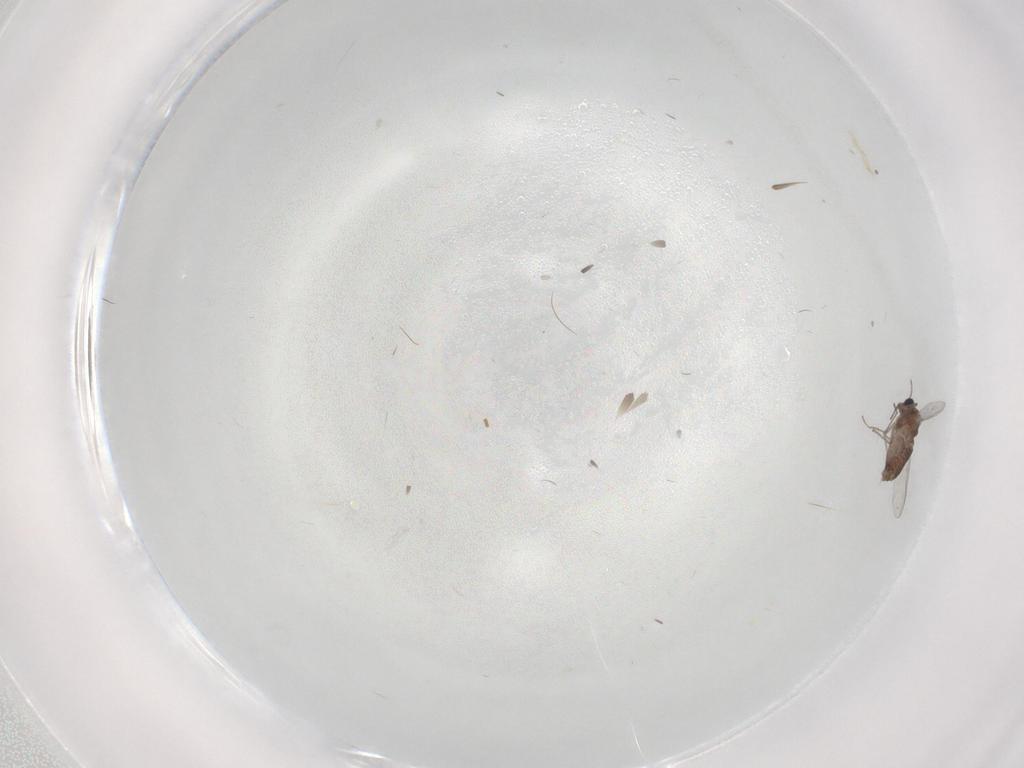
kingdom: Animalia
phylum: Arthropoda
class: Insecta
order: Diptera
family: Chironomidae
